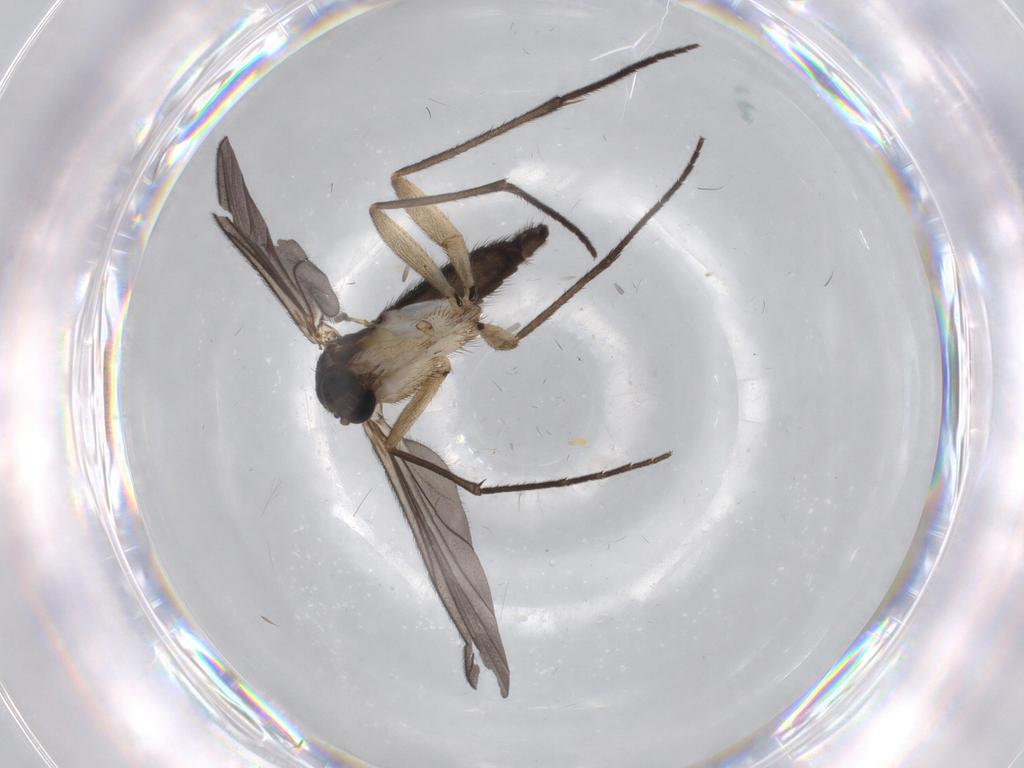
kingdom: Animalia
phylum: Arthropoda
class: Insecta
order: Diptera
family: Sciaridae
